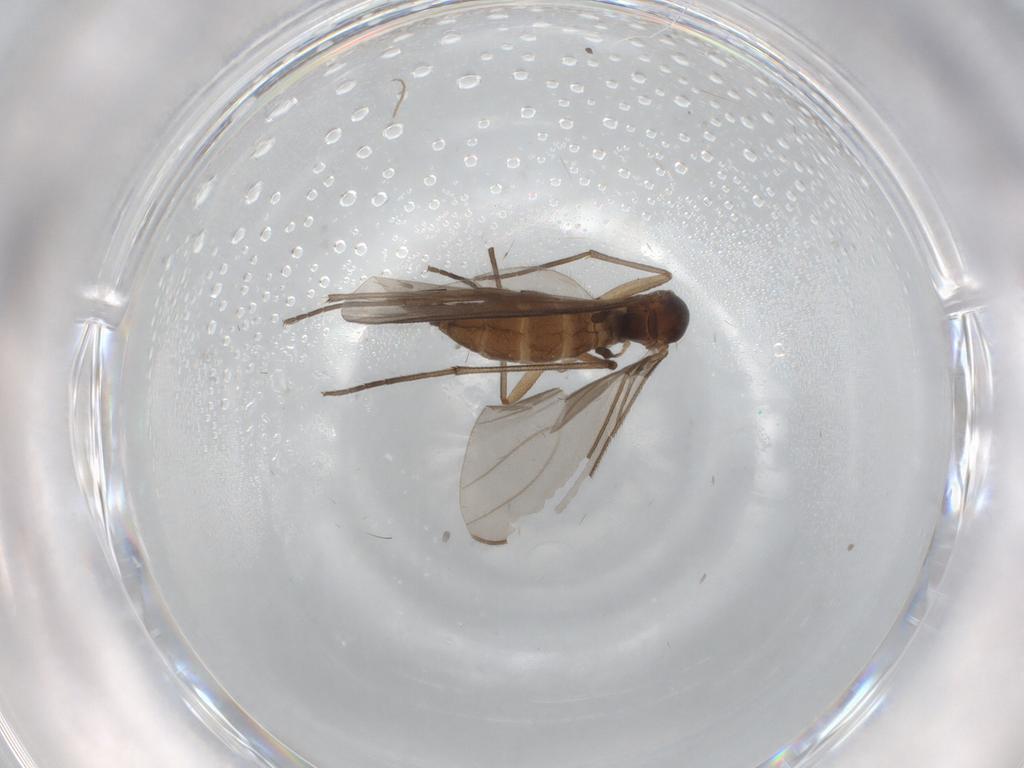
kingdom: Animalia
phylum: Arthropoda
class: Insecta
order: Diptera
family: Sciaridae
